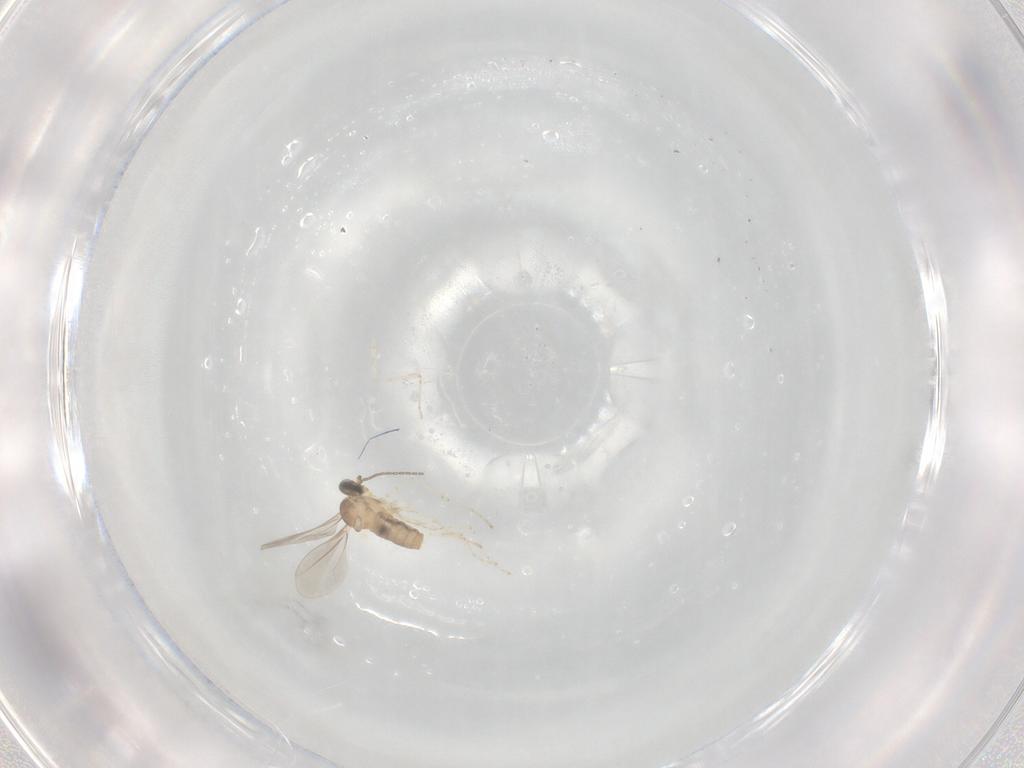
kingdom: Animalia
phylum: Arthropoda
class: Insecta
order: Diptera
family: Cecidomyiidae
